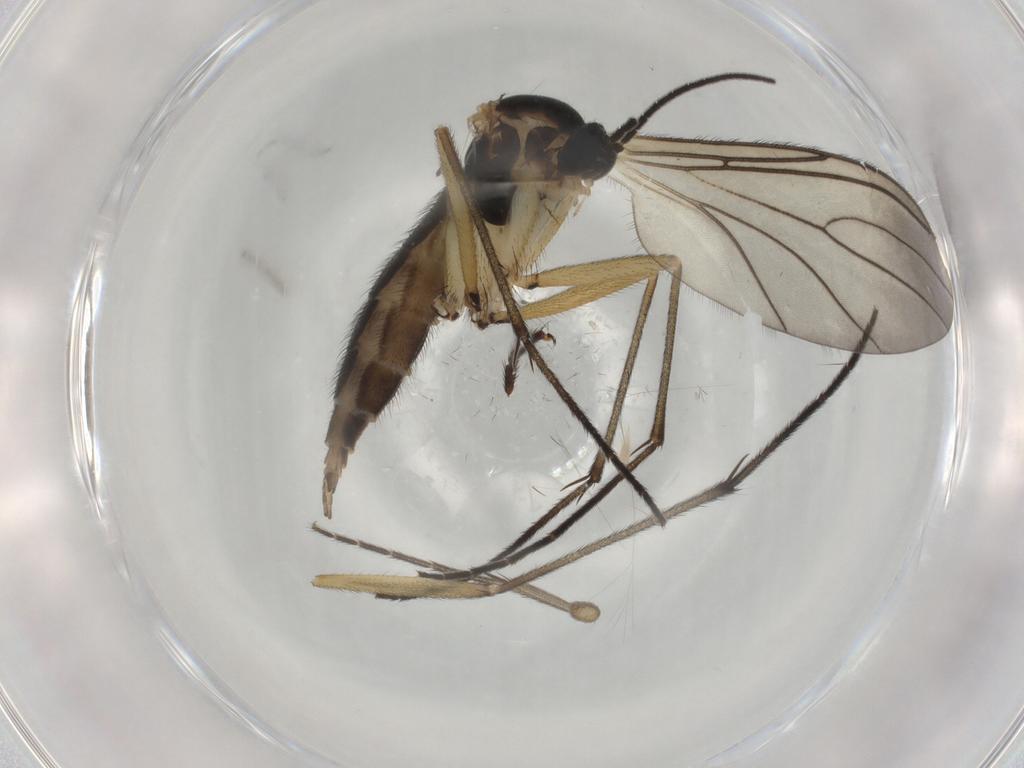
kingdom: Animalia
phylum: Arthropoda
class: Insecta
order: Diptera
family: Sciaridae
